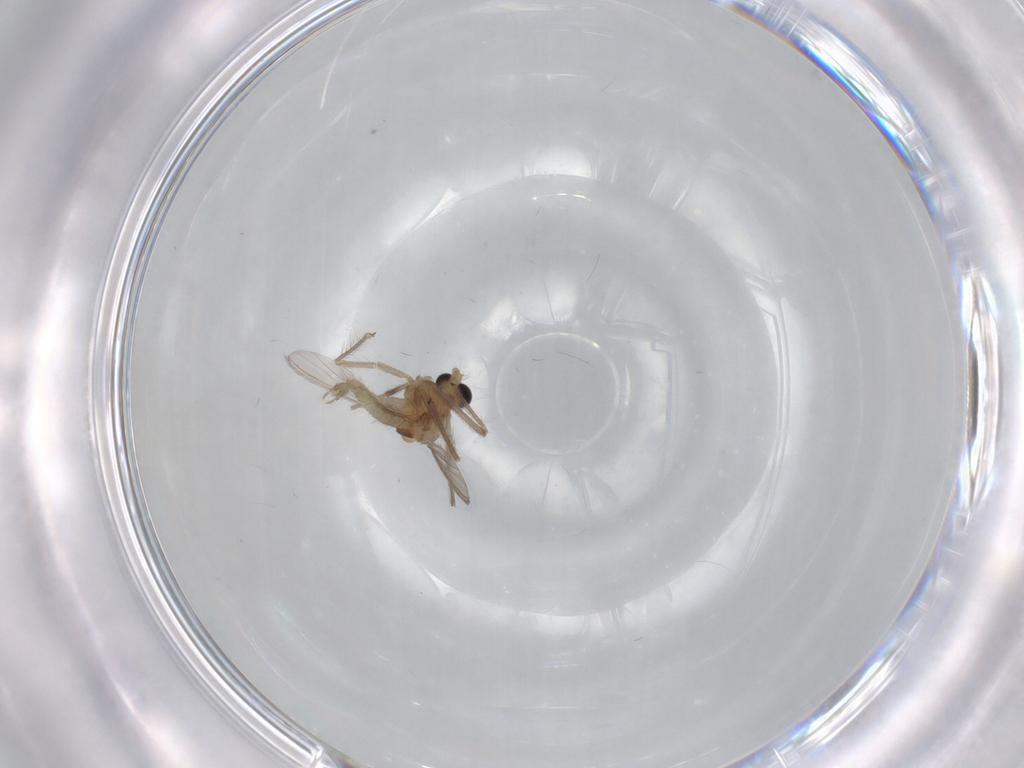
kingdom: Animalia
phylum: Arthropoda
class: Insecta
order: Diptera
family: Chironomidae
